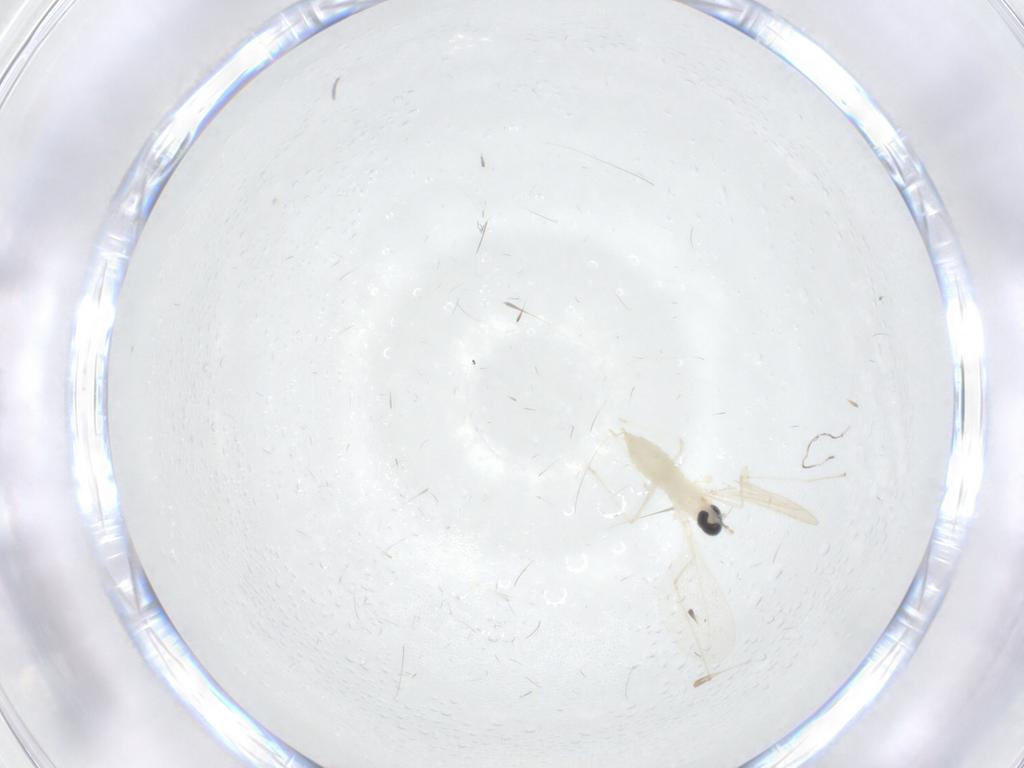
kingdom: Animalia
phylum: Arthropoda
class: Insecta
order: Diptera
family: Cecidomyiidae
